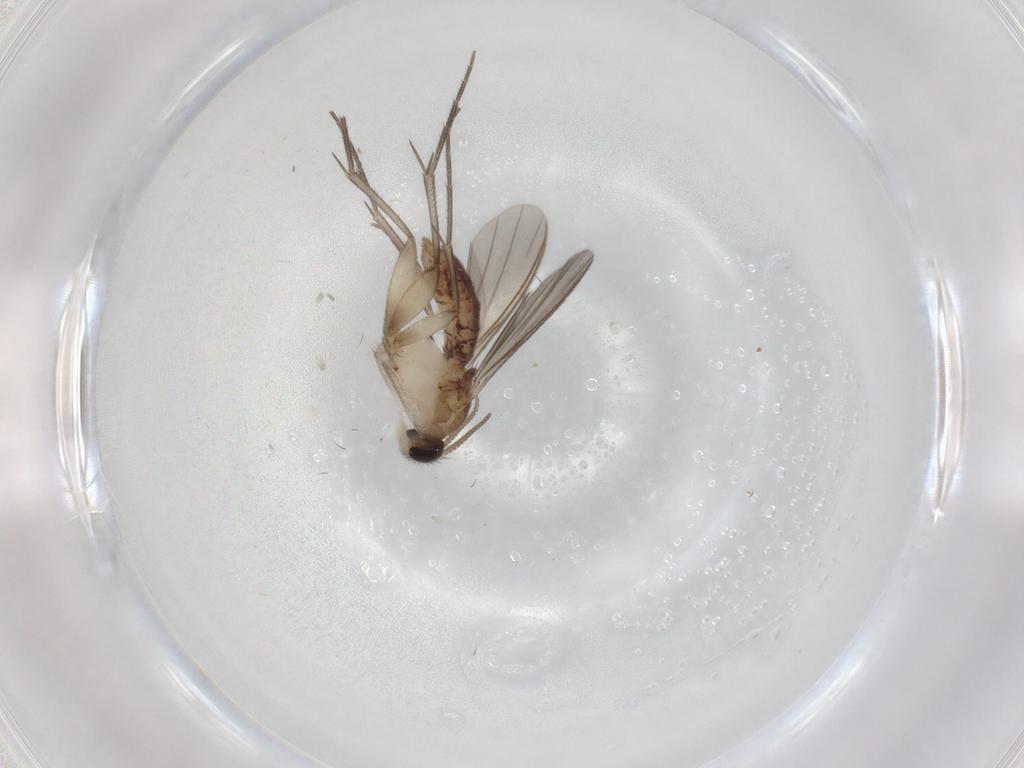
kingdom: Animalia
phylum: Arthropoda
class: Insecta
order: Diptera
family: Mycetophilidae
